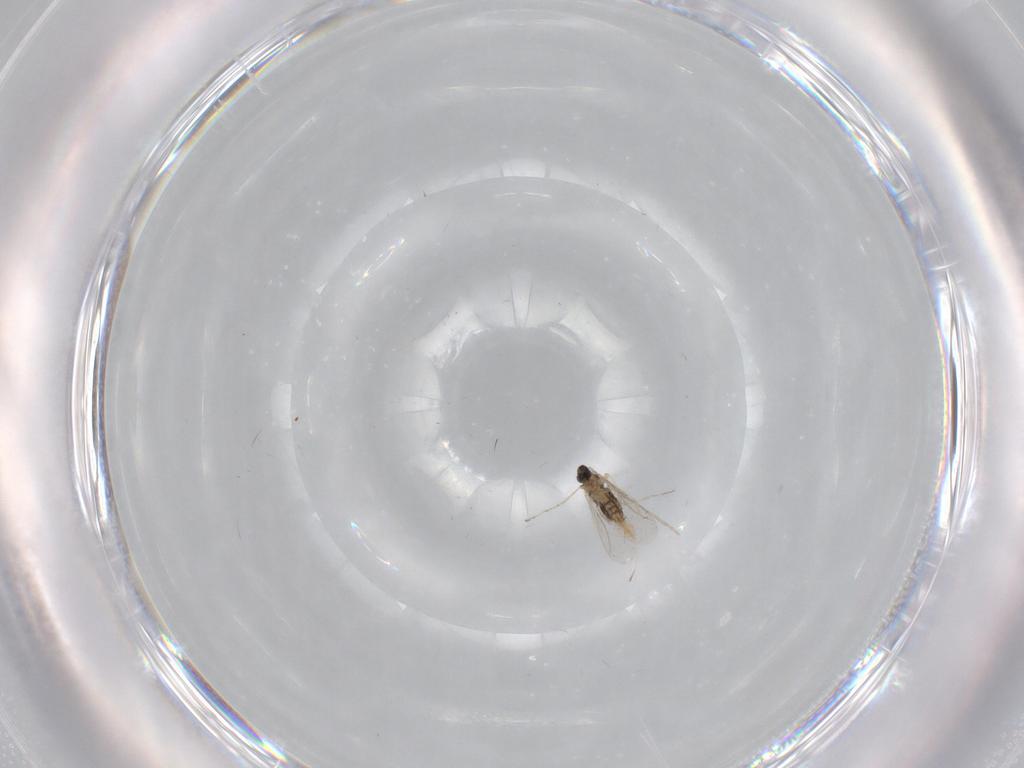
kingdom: Animalia
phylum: Arthropoda
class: Insecta
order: Diptera
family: Cecidomyiidae
